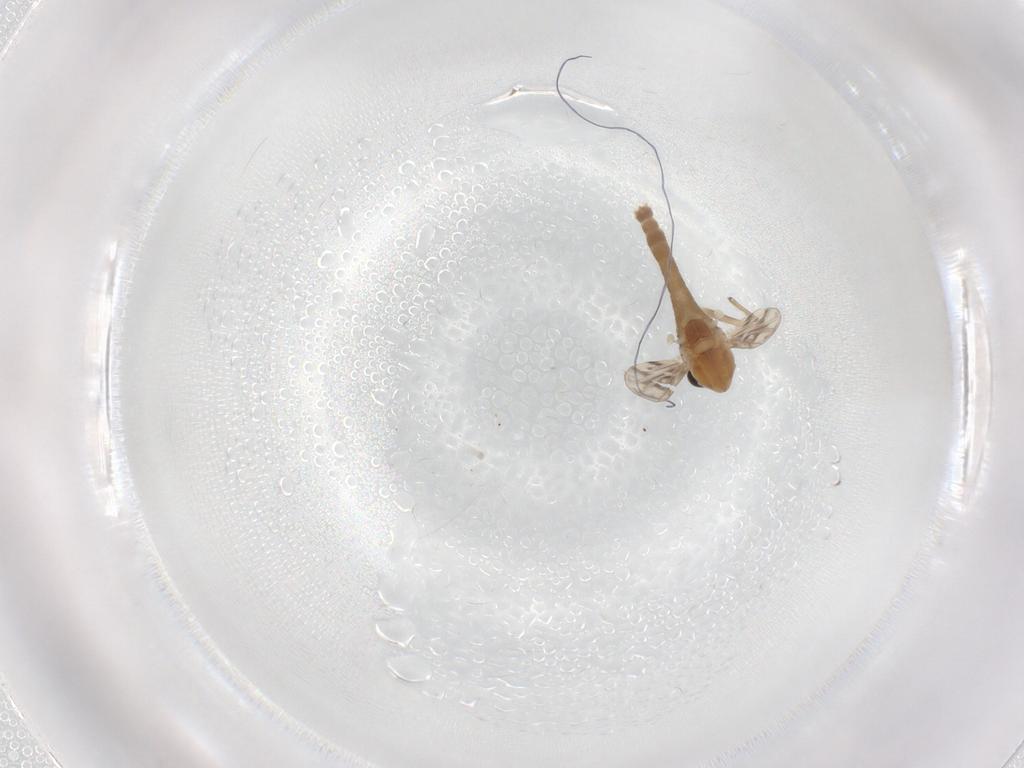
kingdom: Animalia
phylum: Arthropoda
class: Insecta
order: Diptera
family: Chironomidae
